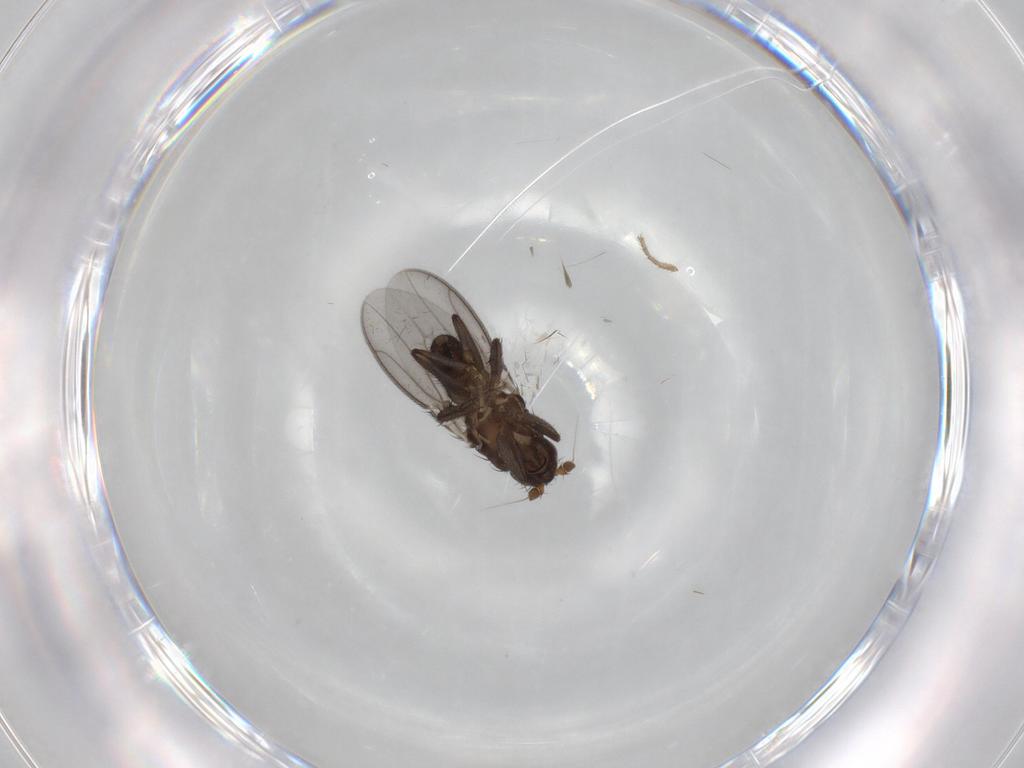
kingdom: Animalia
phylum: Arthropoda
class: Insecta
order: Diptera
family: Sphaeroceridae
